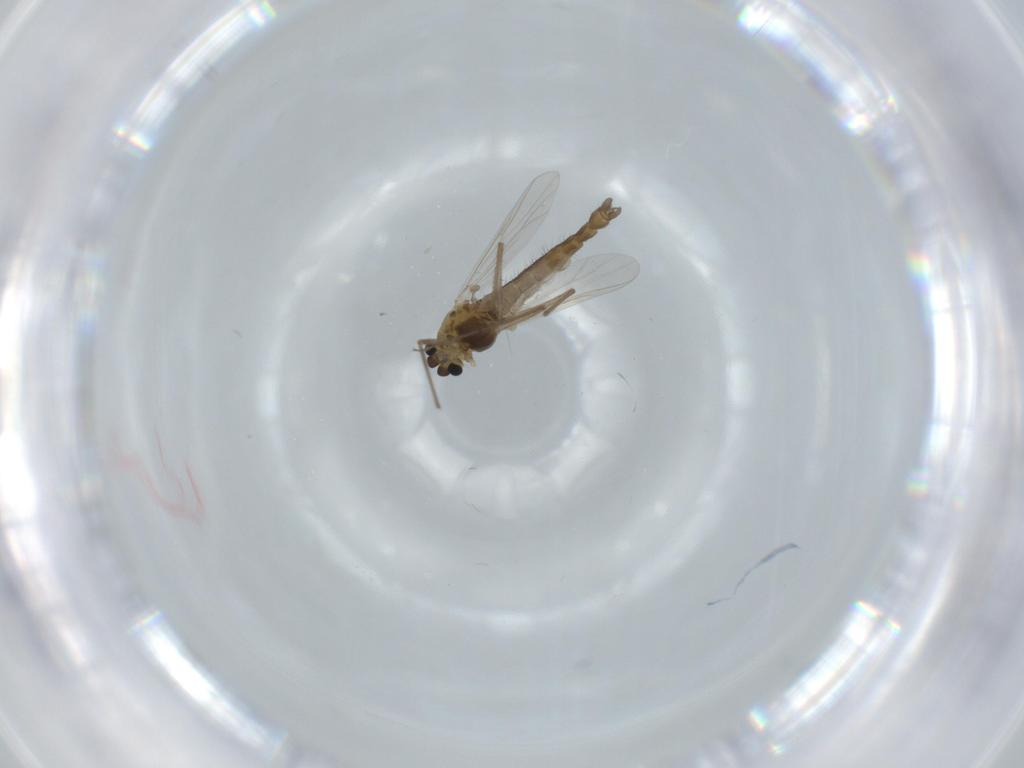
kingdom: Animalia
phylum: Arthropoda
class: Insecta
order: Diptera
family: Chironomidae
